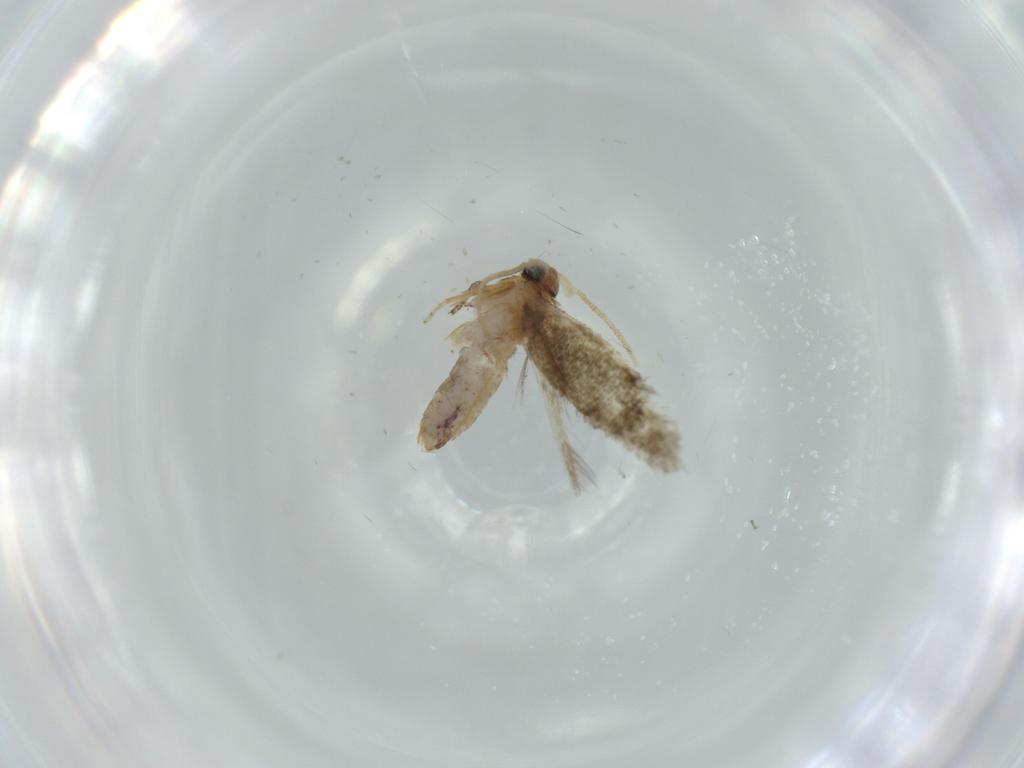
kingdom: Animalia
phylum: Arthropoda
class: Insecta
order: Lepidoptera
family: Nepticulidae
